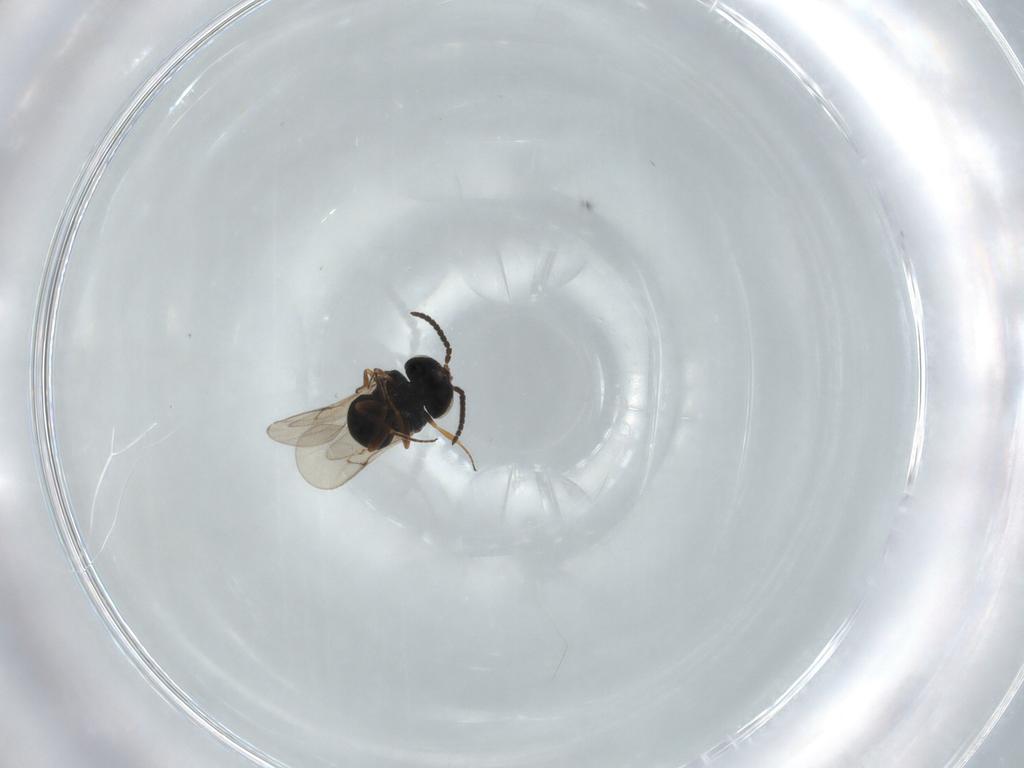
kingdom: Animalia
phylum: Arthropoda
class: Insecta
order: Hymenoptera
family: Scelionidae
